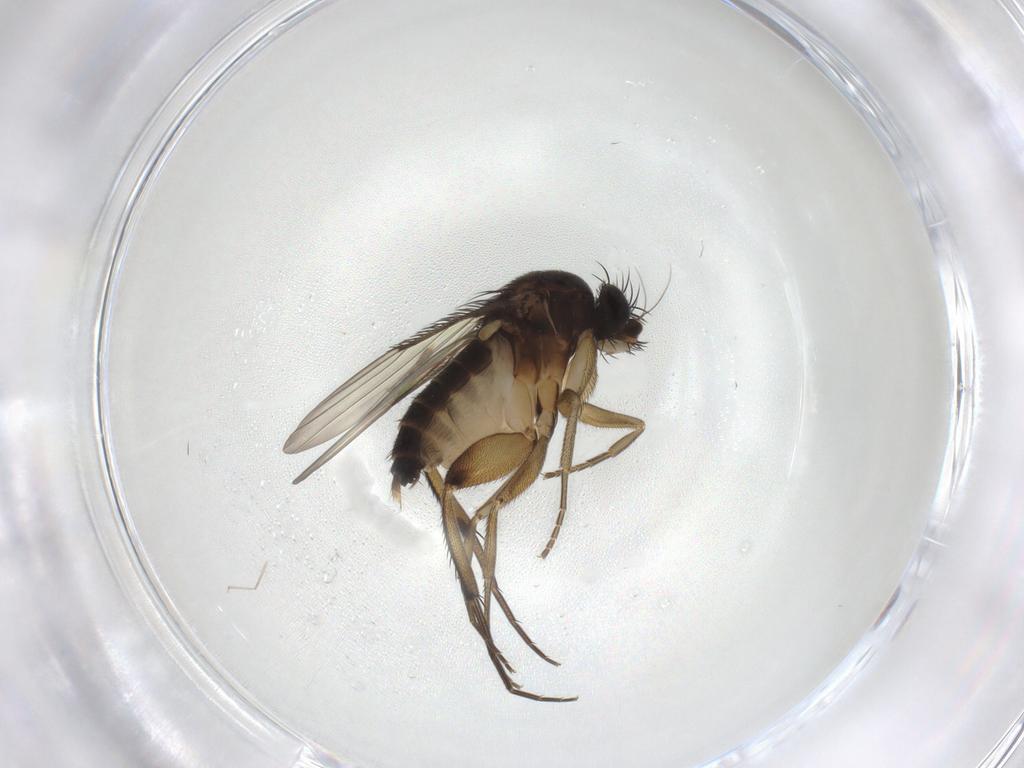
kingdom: Animalia
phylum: Arthropoda
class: Insecta
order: Diptera
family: Phoridae
